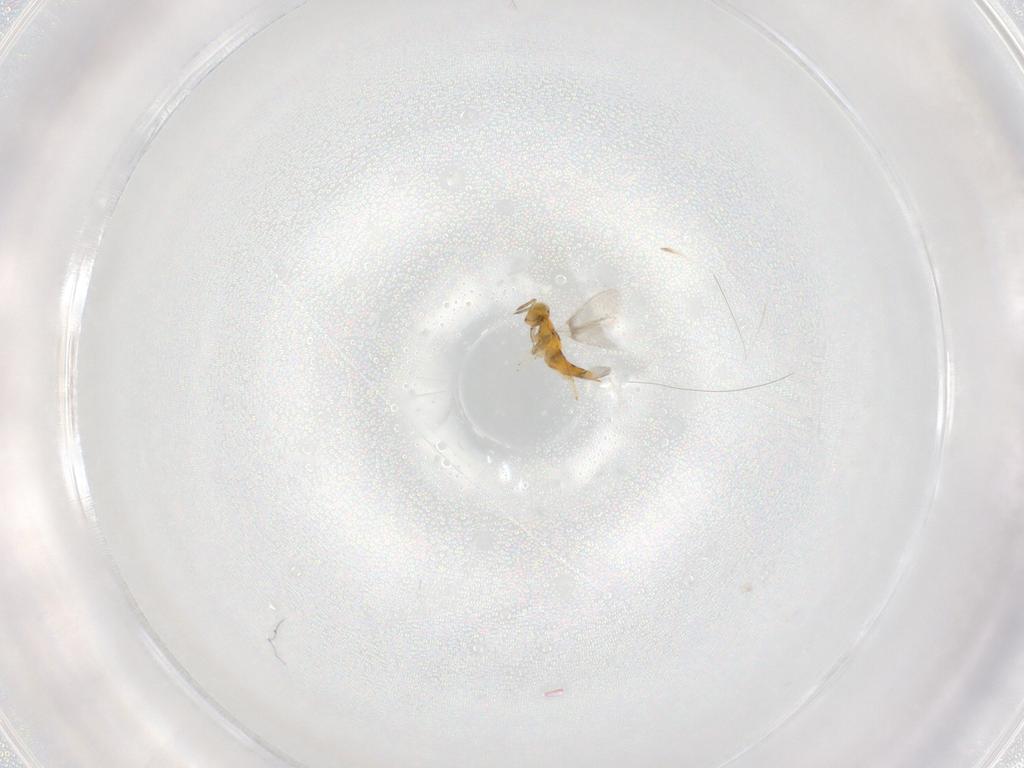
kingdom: Animalia
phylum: Arthropoda
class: Insecta
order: Hymenoptera
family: Aphelinidae
